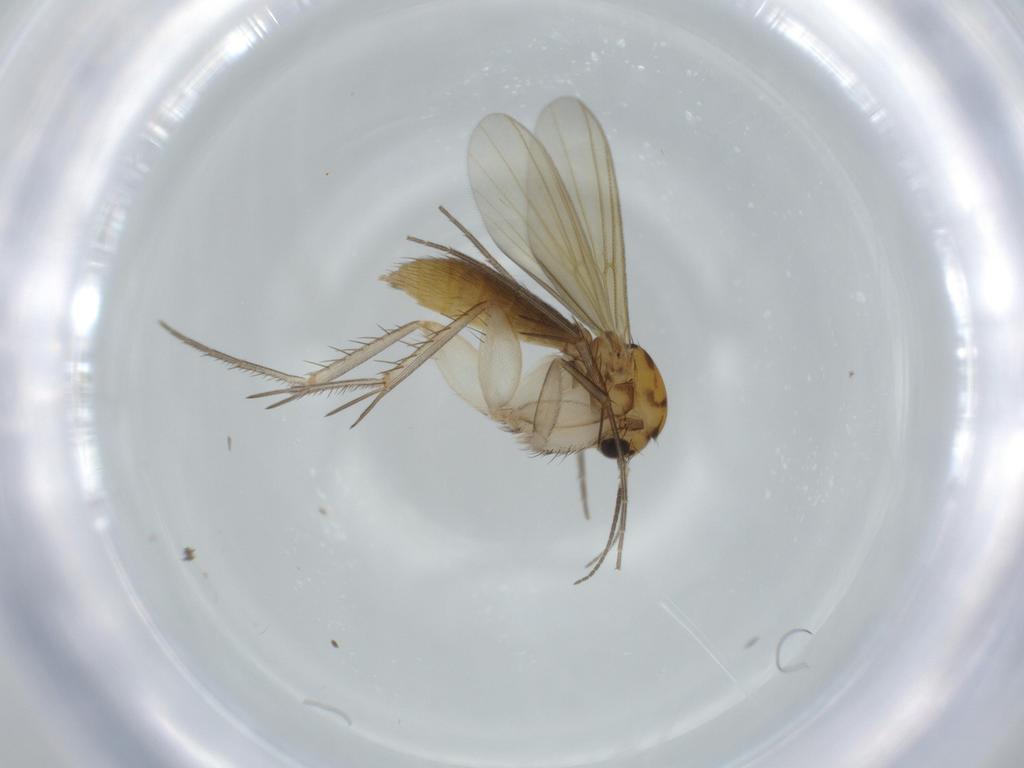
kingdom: Animalia
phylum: Arthropoda
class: Insecta
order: Diptera
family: Mycetophilidae
